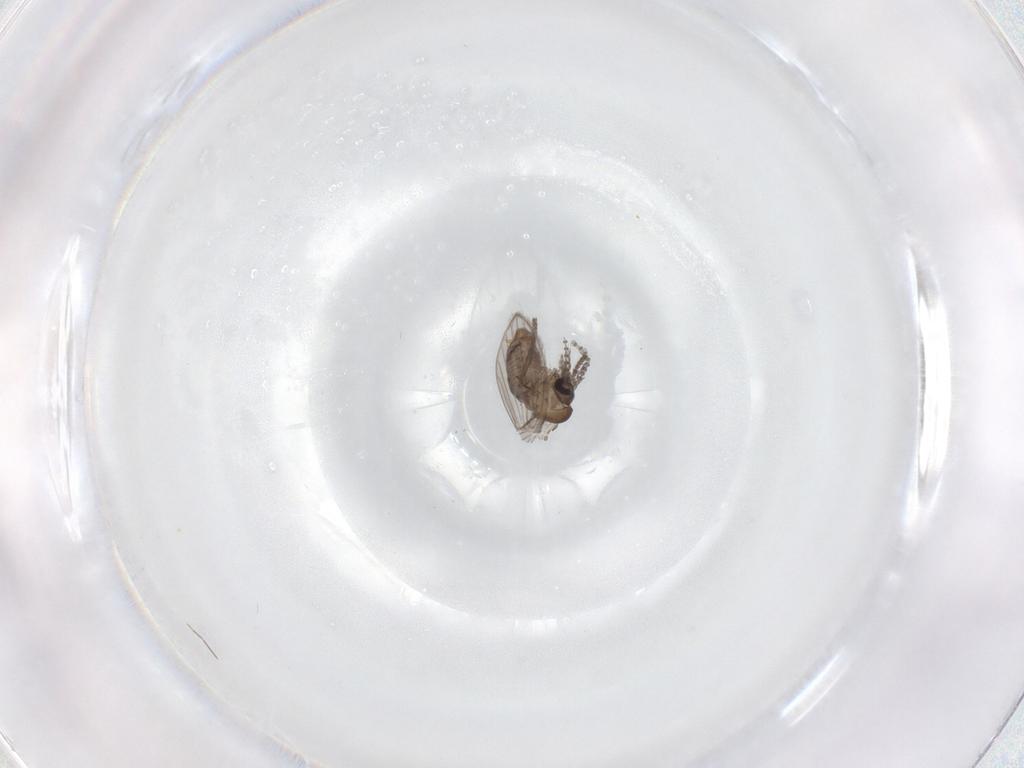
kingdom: Animalia
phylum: Arthropoda
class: Insecta
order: Diptera
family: Psychodidae
